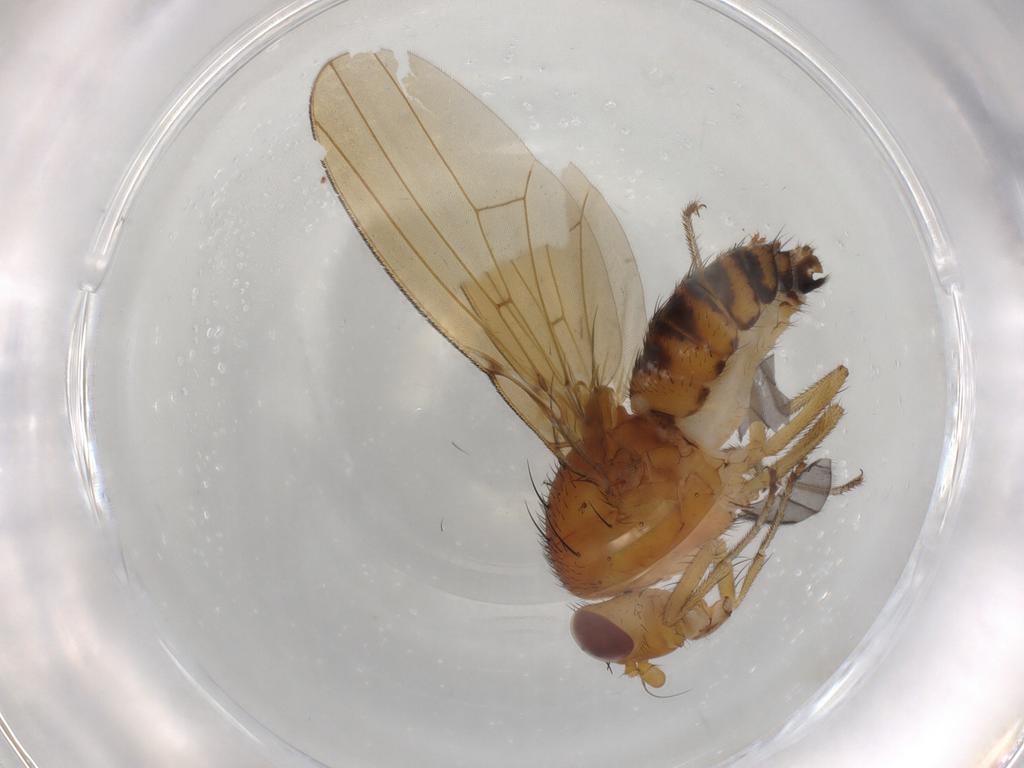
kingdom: Animalia
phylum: Arthropoda
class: Insecta
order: Diptera
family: Sciaridae
